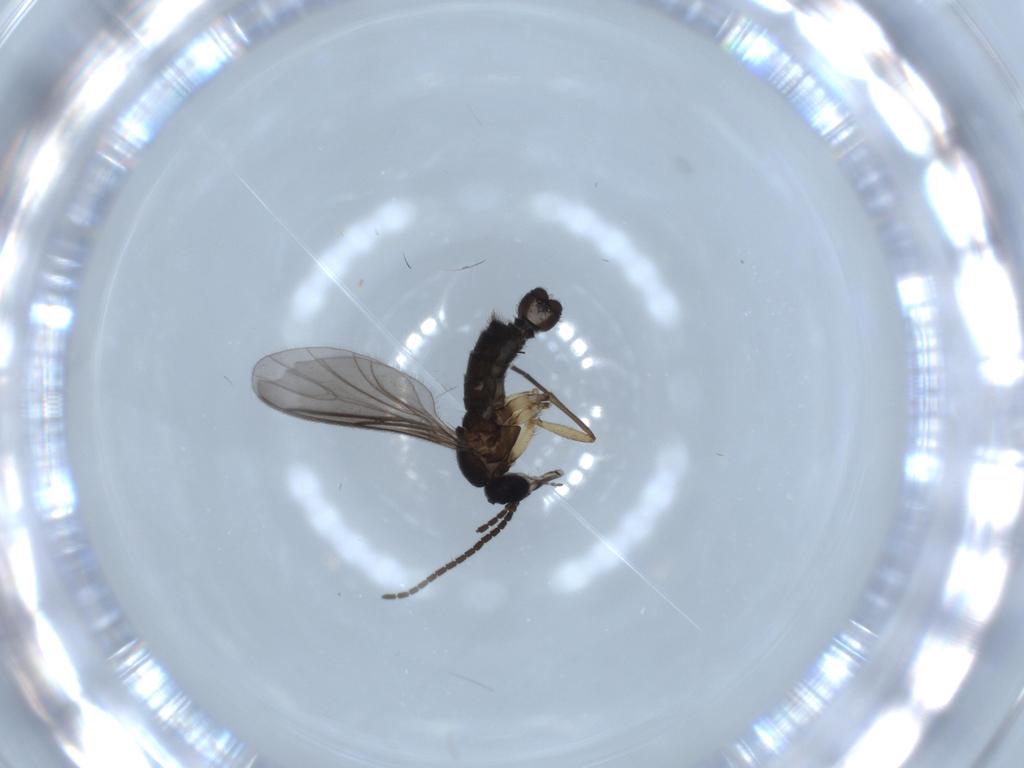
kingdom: Animalia
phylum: Arthropoda
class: Insecta
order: Diptera
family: Sciaridae
